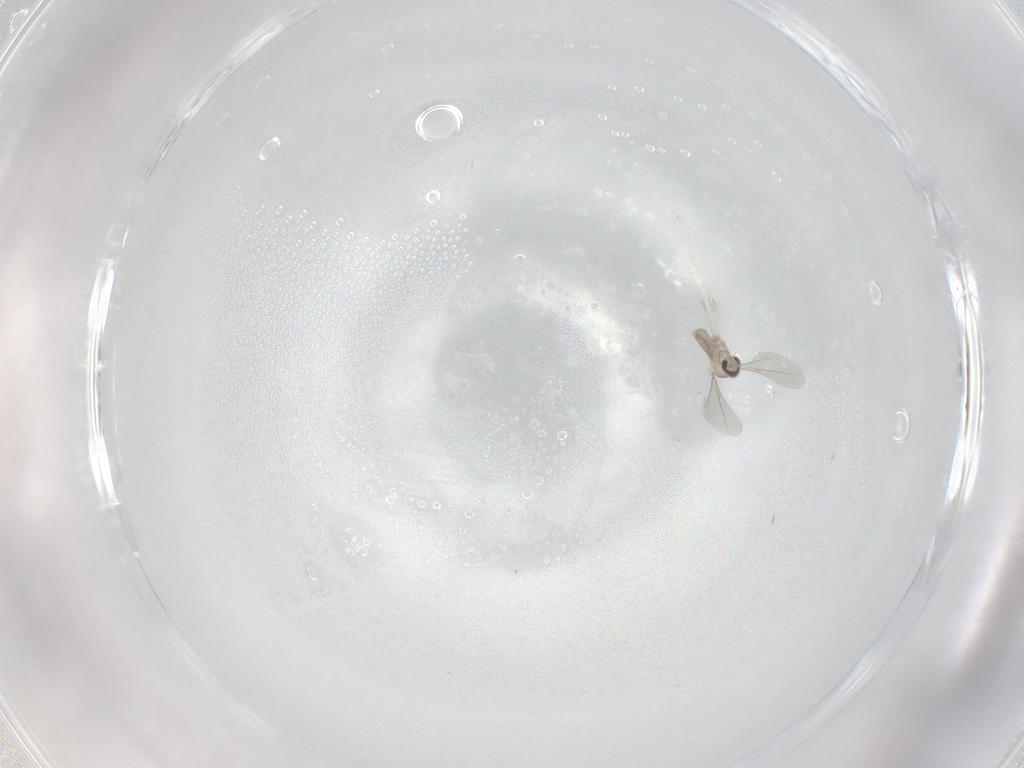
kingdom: Animalia
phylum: Arthropoda
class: Insecta
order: Diptera
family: Cecidomyiidae
